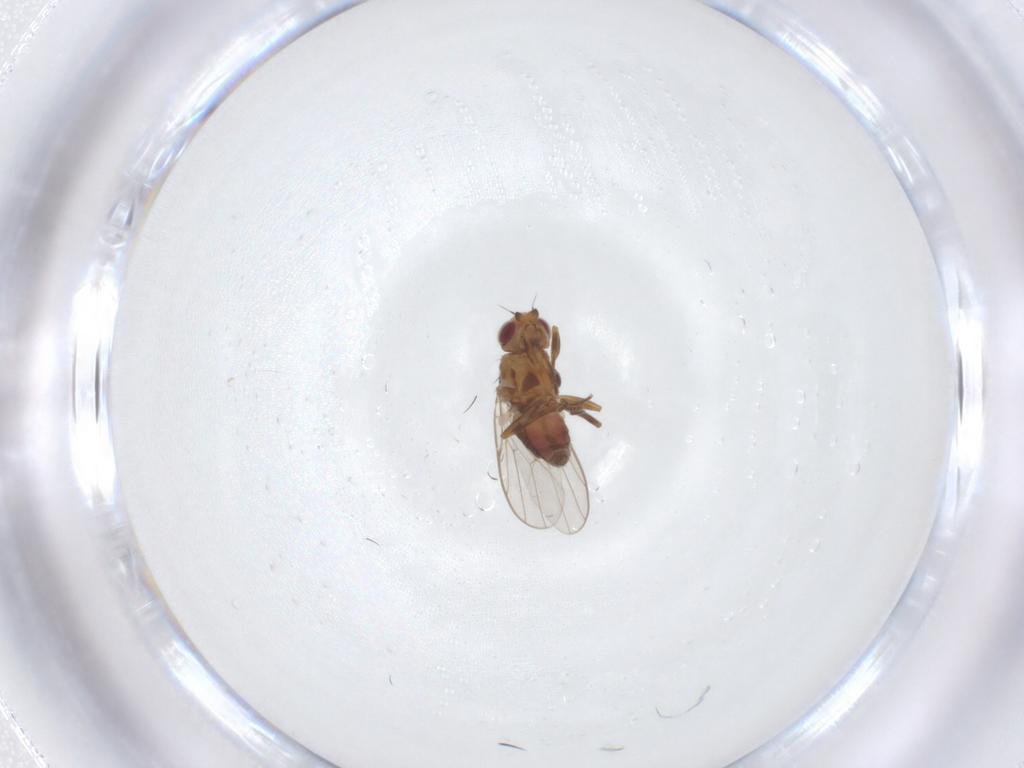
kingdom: Animalia
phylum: Arthropoda
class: Insecta
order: Diptera
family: Chloropidae
